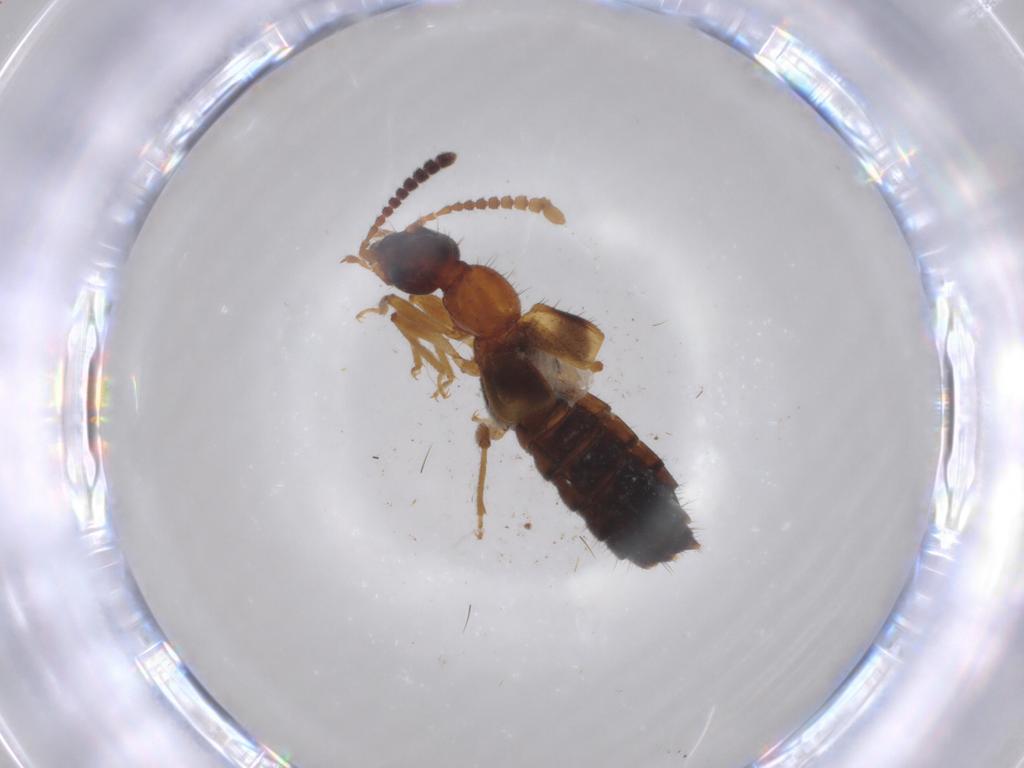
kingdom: Animalia
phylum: Arthropoda
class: Insecta
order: Coleoptera
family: Staphylinidae
